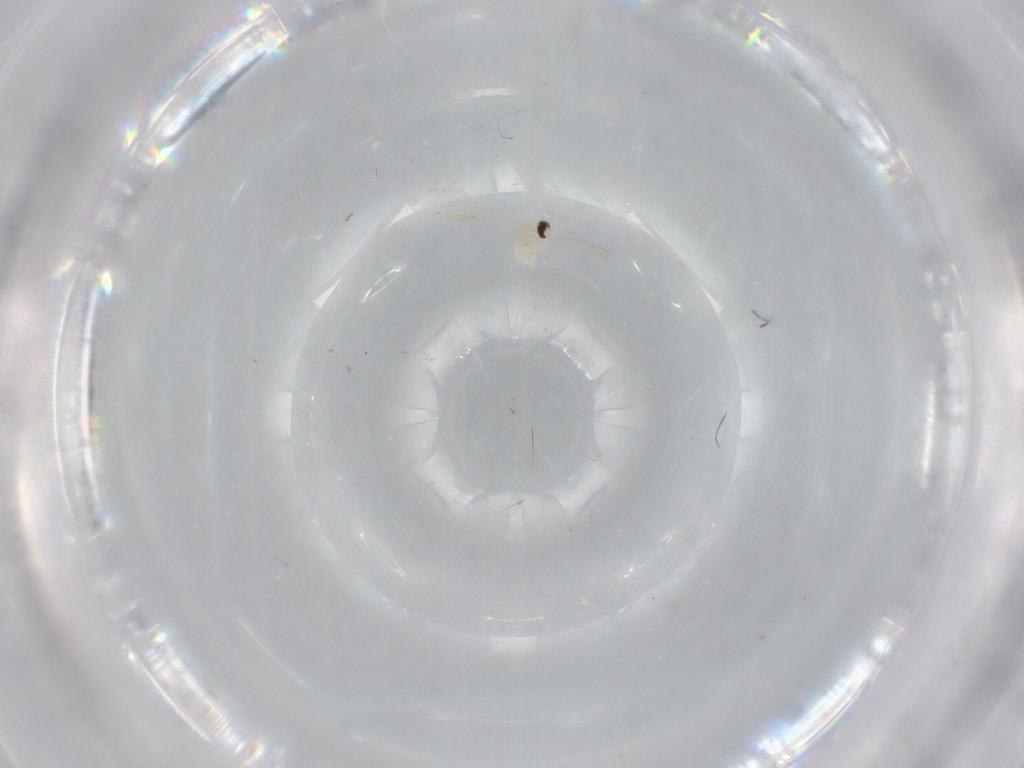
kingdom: Animalia
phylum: Arthropoda
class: Insecta
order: Diptera
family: Cecidomyiidae
